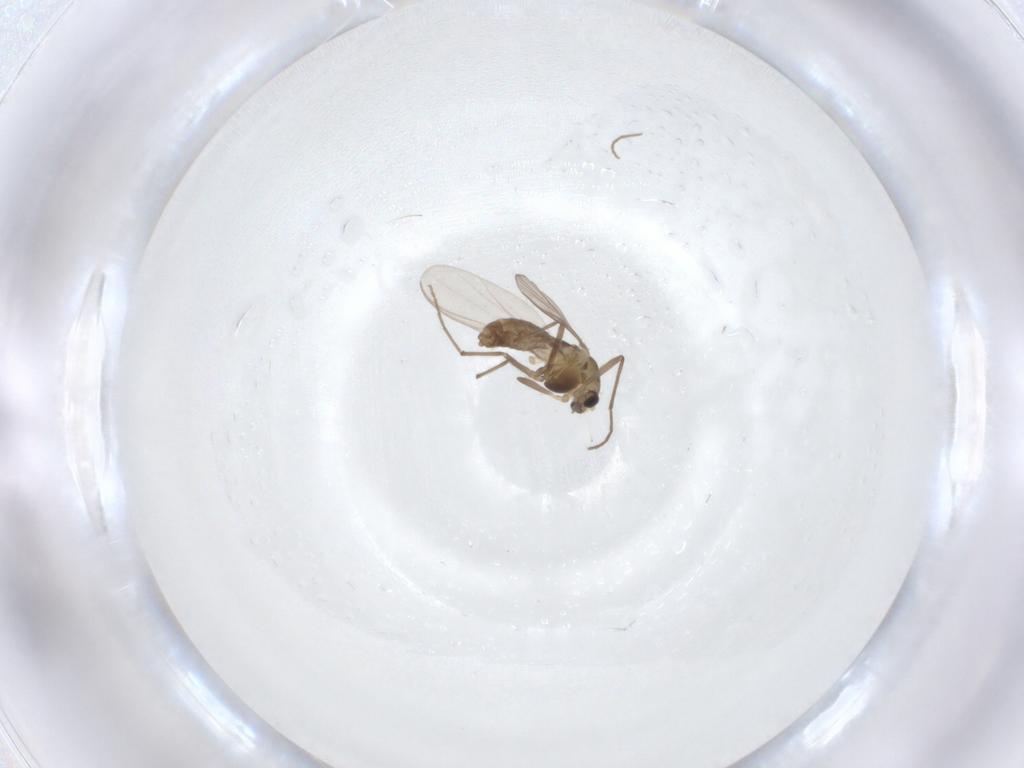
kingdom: Animalia
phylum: Arthropoda
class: Insecta
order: Diptera
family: Chironomidae
